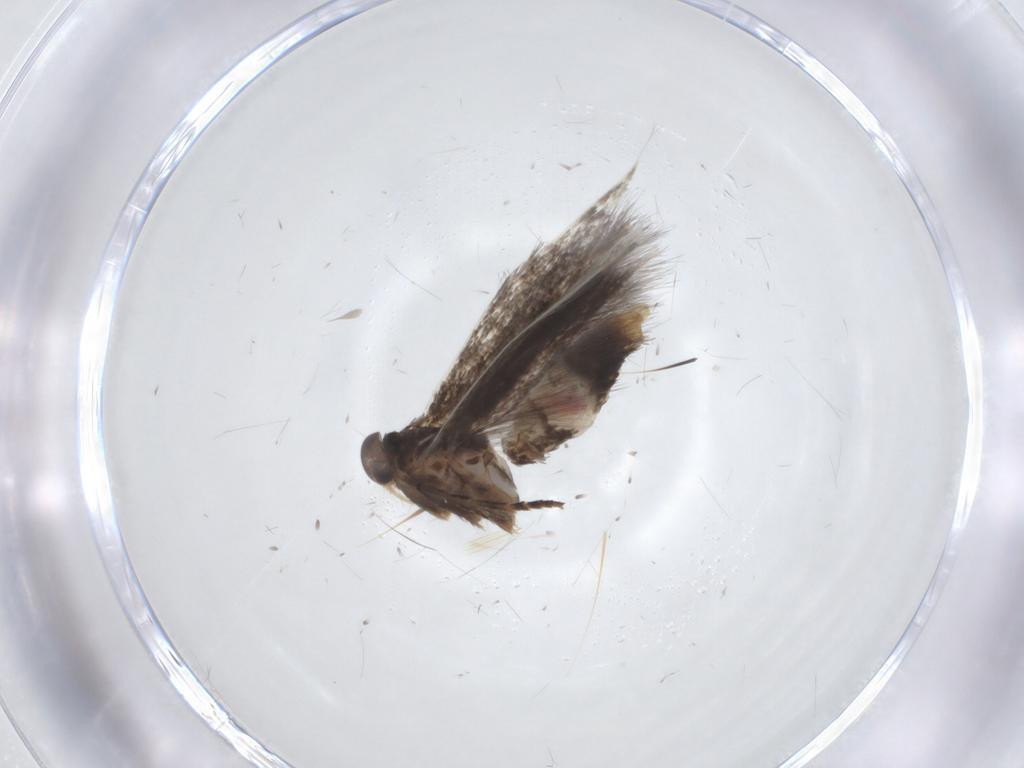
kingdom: Animalia
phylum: Arthropoda
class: Insecta
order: Lepidoptera
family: Elachistidae
